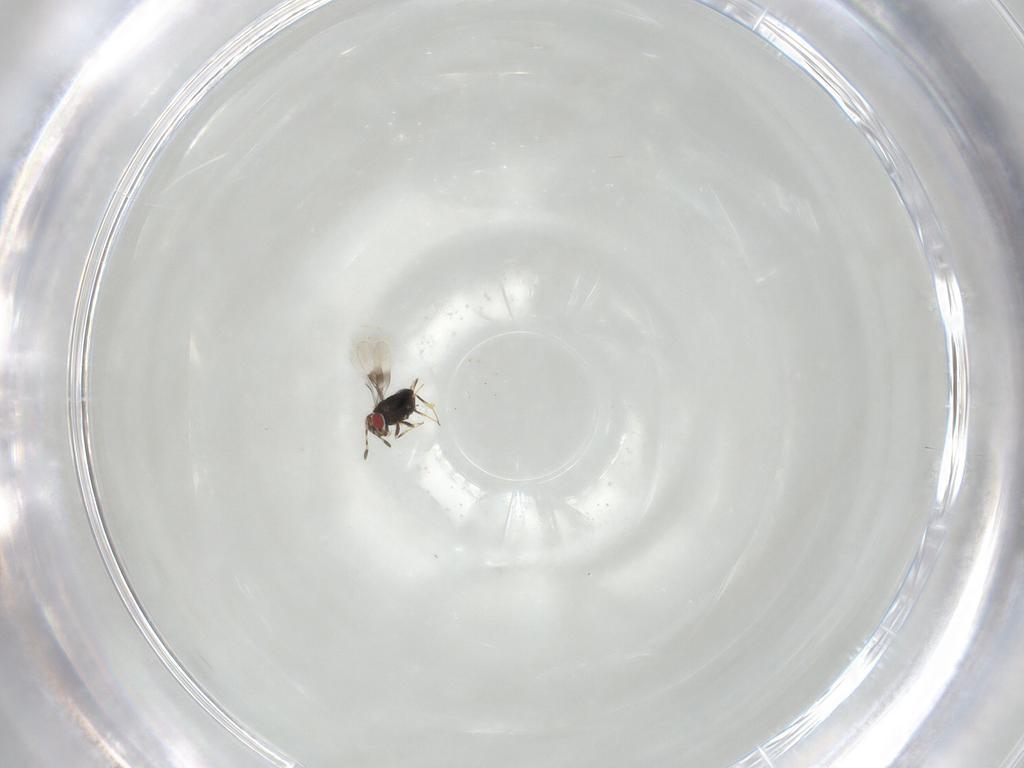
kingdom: Animalia
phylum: Arthropoda
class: Insecta
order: Hymenoptera
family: Azotidae
